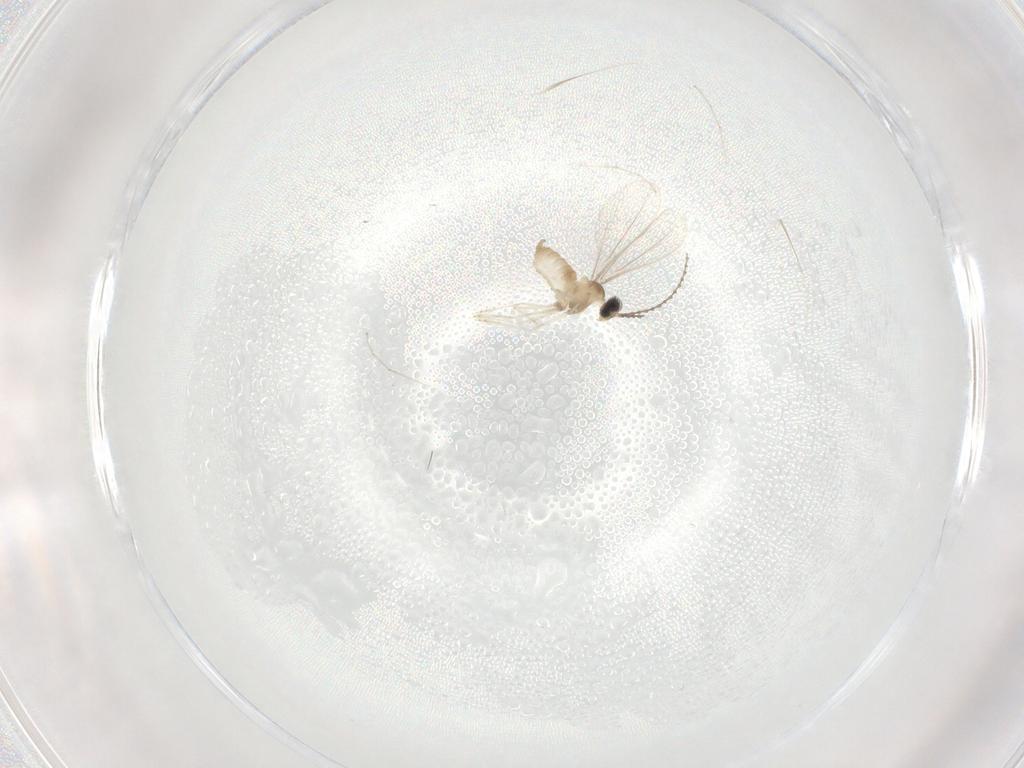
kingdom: Animalia
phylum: Arthropoda
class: Insecta
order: Diptera
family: Cecidomyiidae
